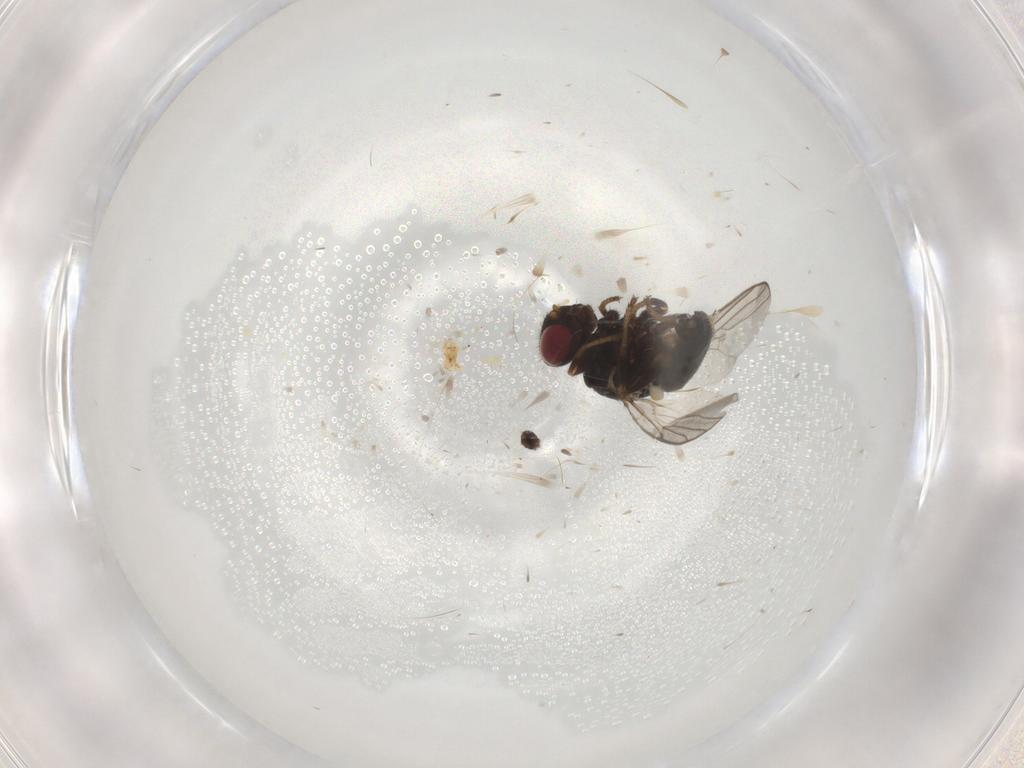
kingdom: Animalia
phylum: Arthropoda
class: Insecta
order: Diptera
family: Chloropidae
